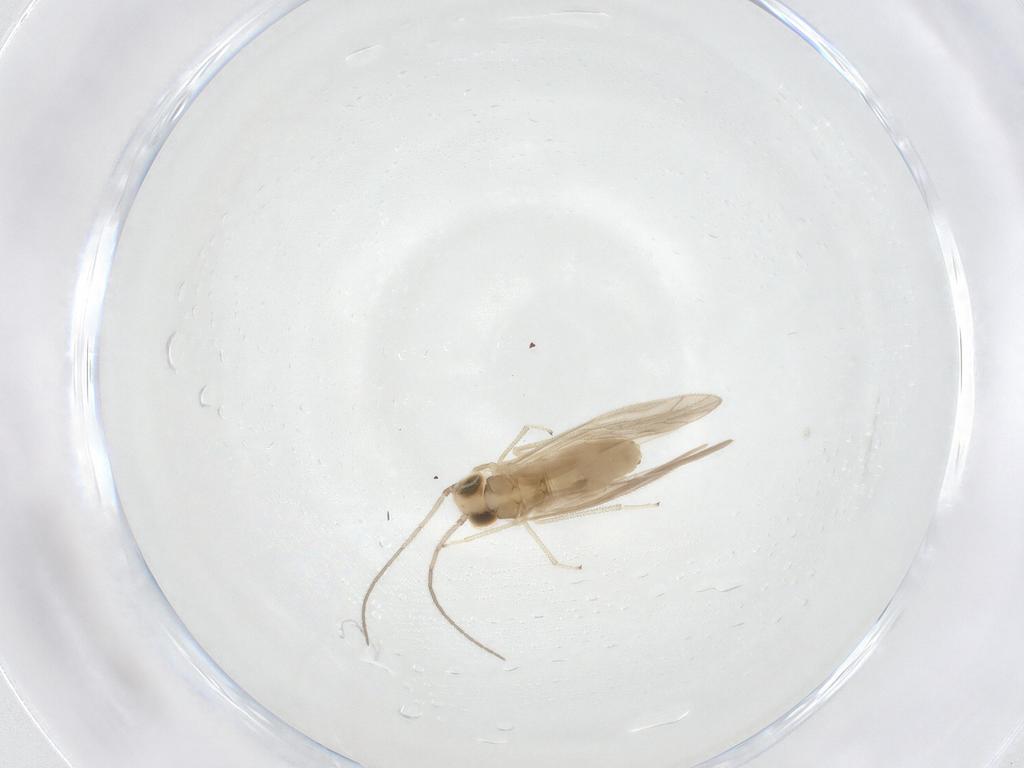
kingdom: Animalia
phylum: Arthropoda
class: Insecta
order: Psocodea
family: Caeciliusidae
